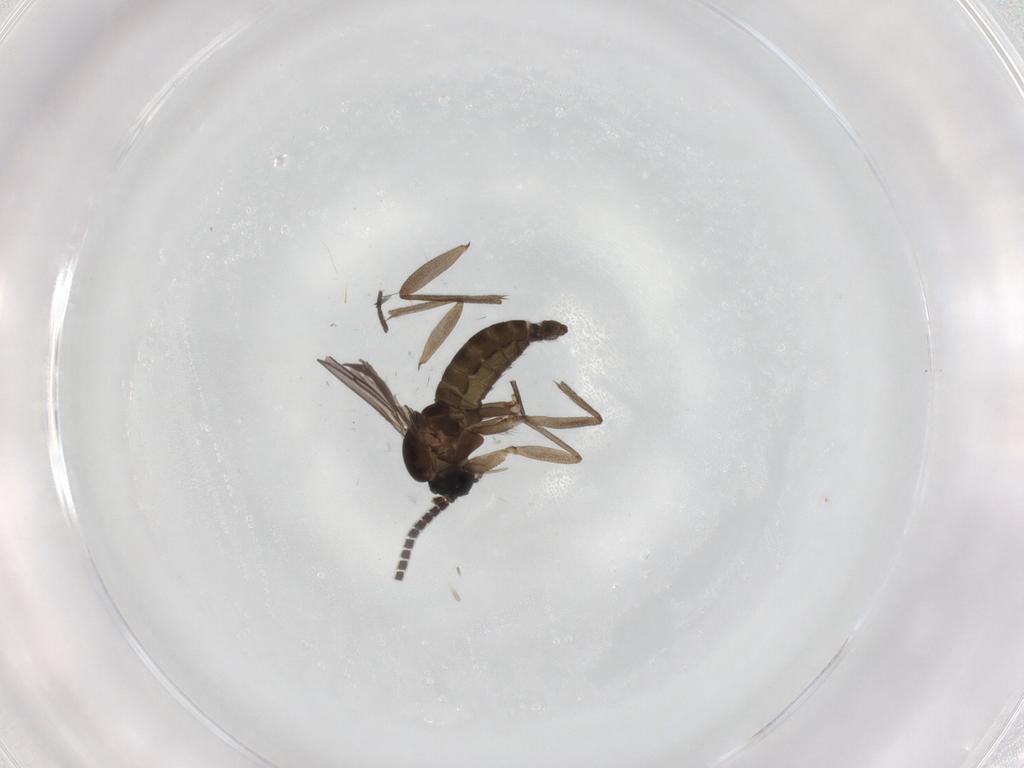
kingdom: Animalia
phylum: Arthropoda
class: Insecta
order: Diptera
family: Sciaridae
